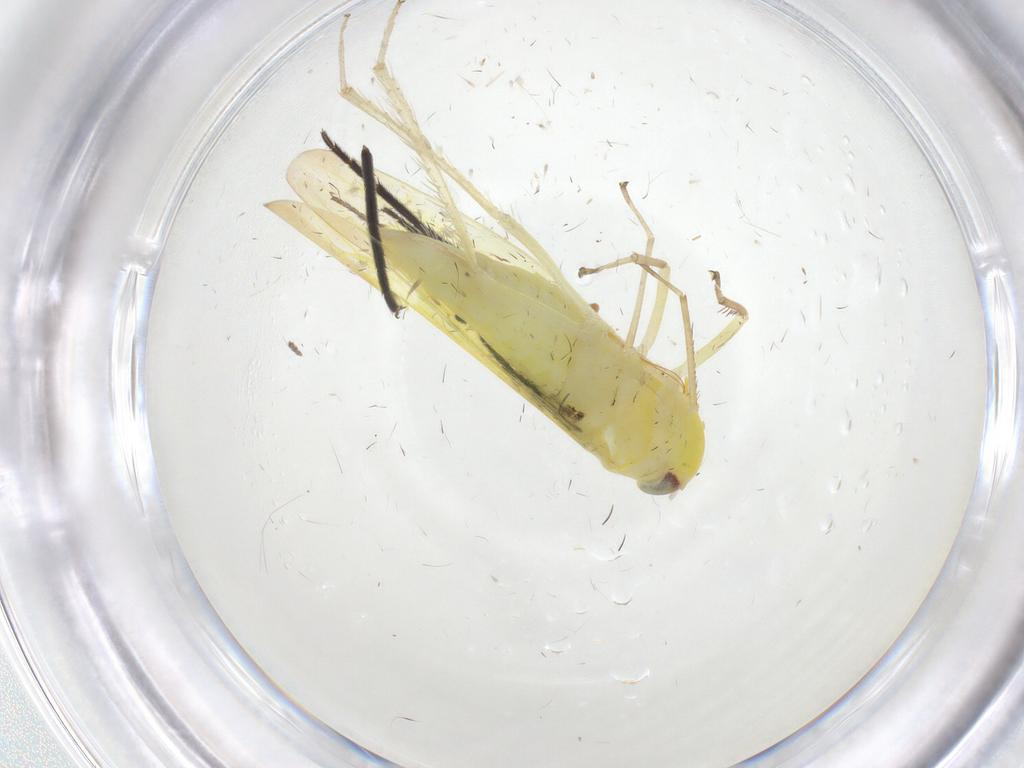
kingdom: Animalia
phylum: Arthropoda
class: Insecta
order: Hemiptera
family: Cicadellidae
